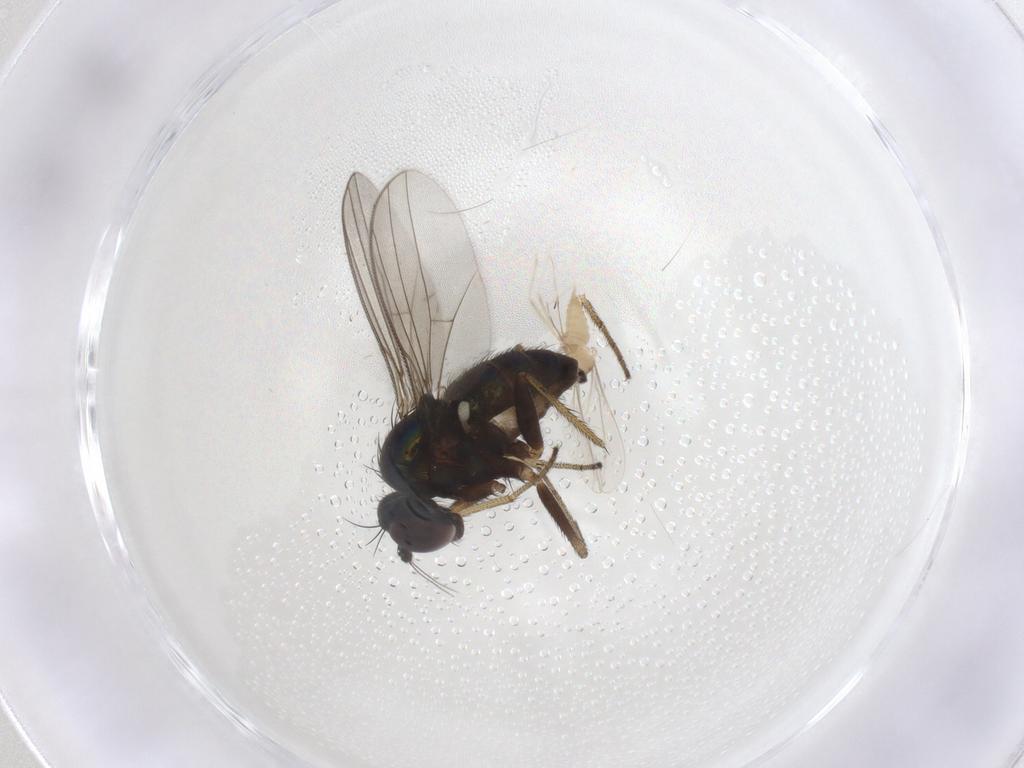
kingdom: Animalia
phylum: Arthropoda
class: Insecta
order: Diptera
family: Cecidomyiidae
